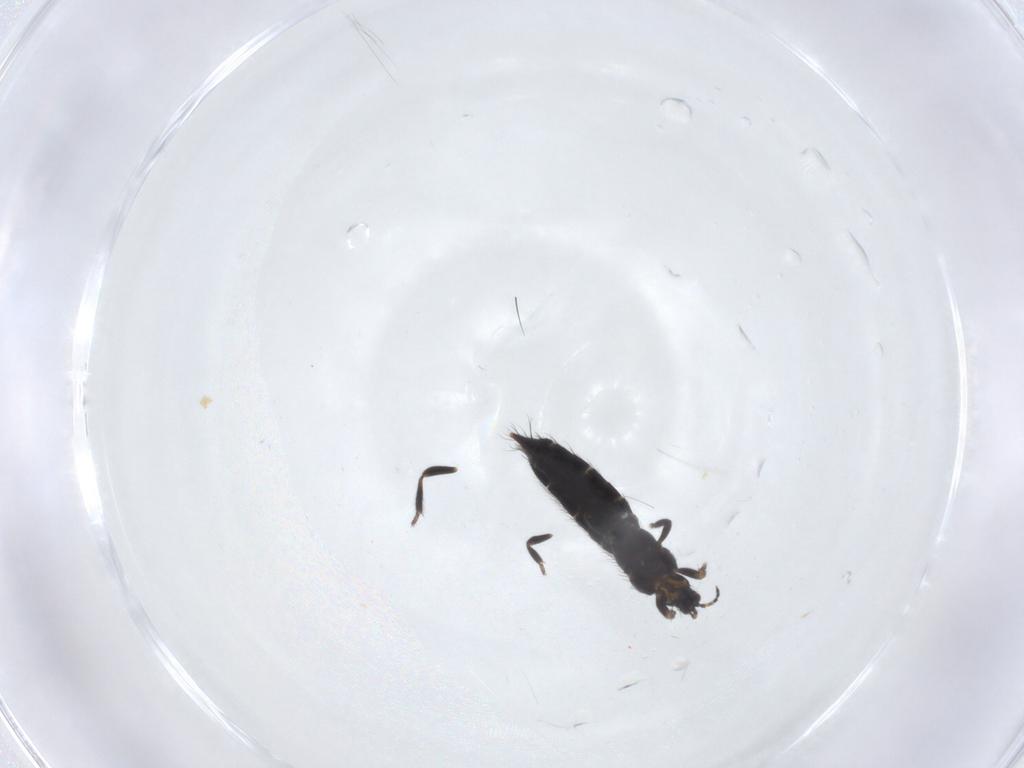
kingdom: Animalia
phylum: Arthropoda
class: Insecta
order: Thysanoptera
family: Thripidae
